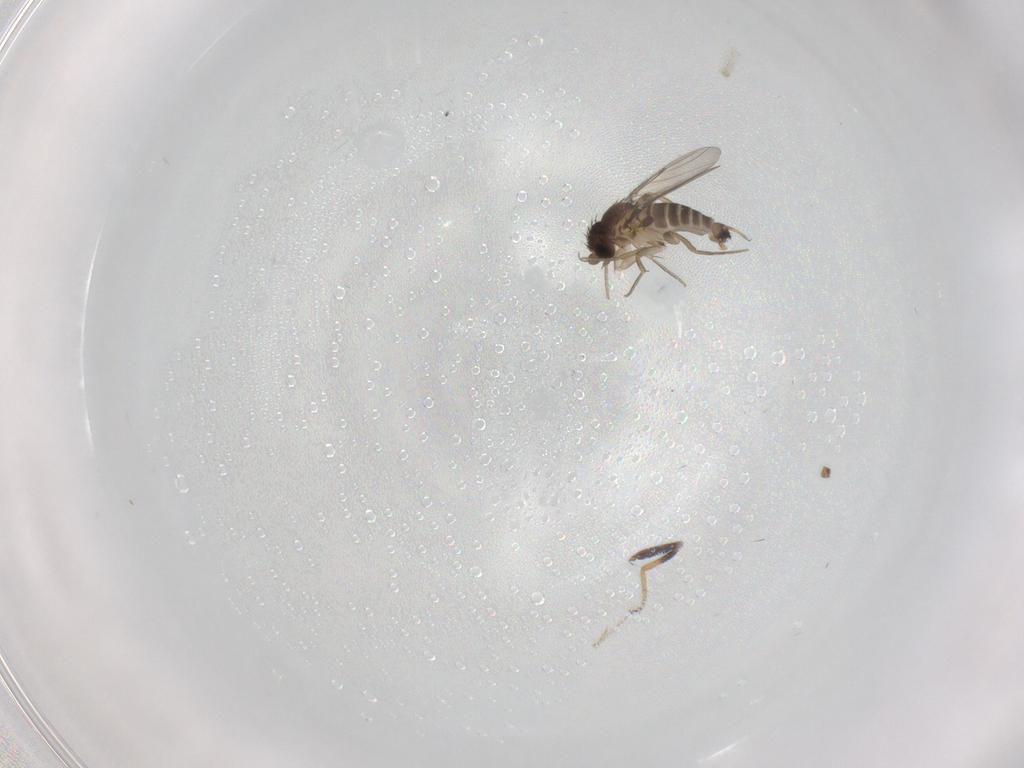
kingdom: Animalia
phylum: Arthropoda
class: Insecta
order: Diptera
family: Phoridae
